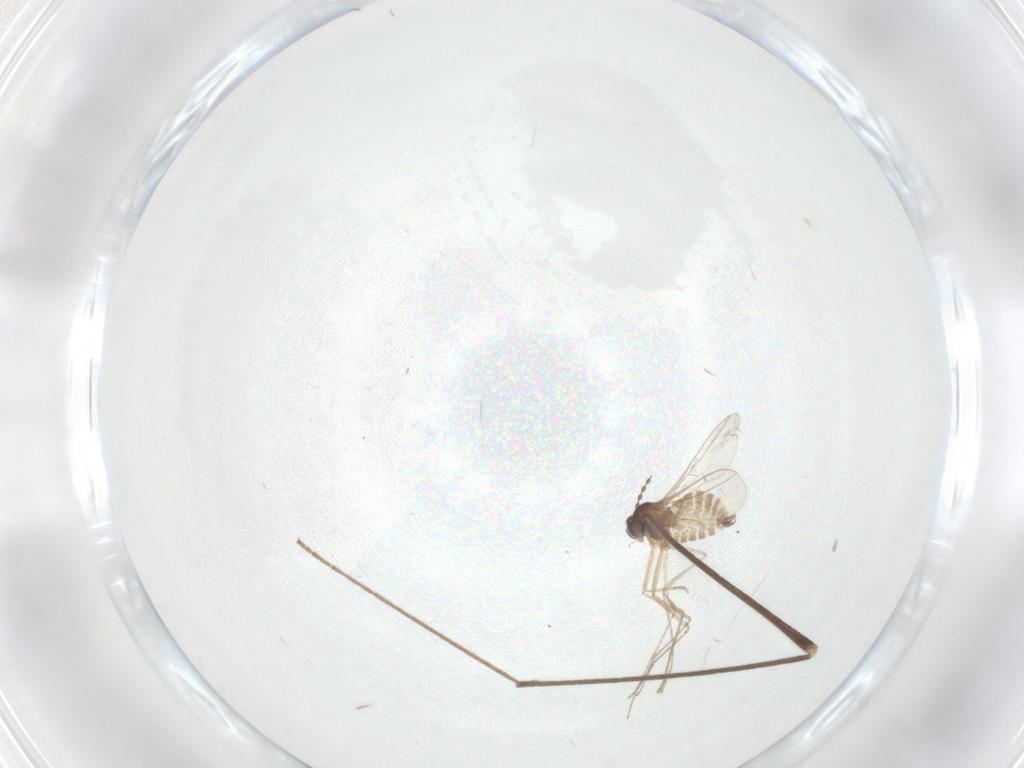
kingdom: Animalia
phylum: Arthropoda
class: Insecta
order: Diptera
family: Cecidomyiidae
